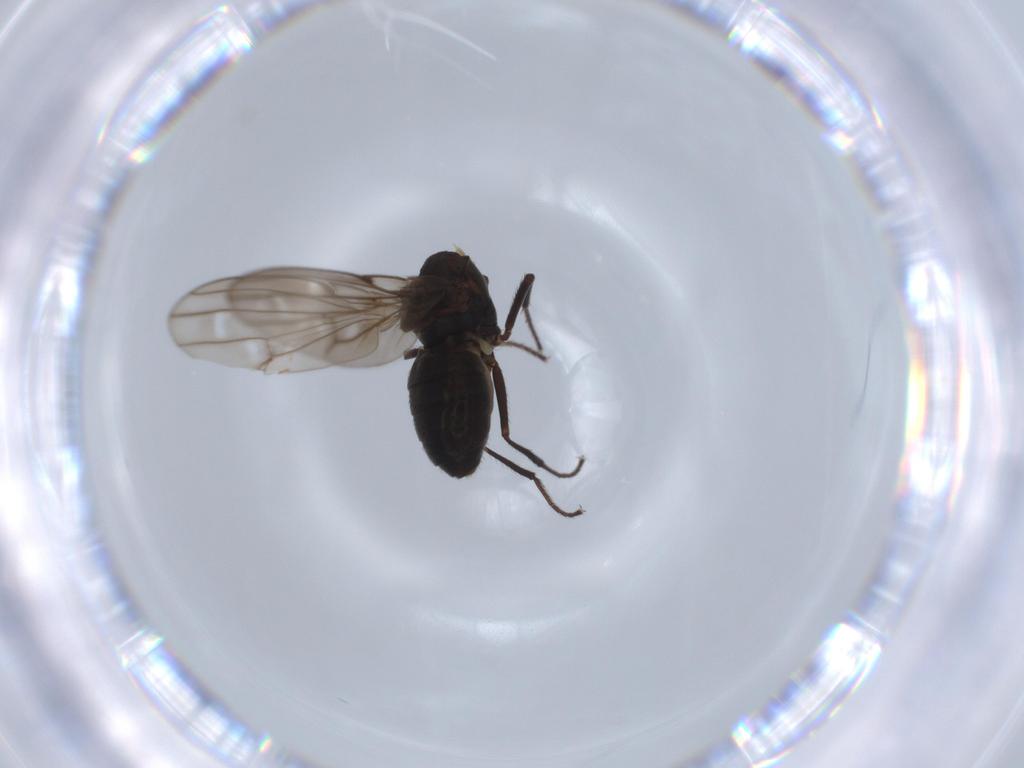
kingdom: Animalia
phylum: Arthropoda
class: Insecta
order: Diptera
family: Ephydridae
